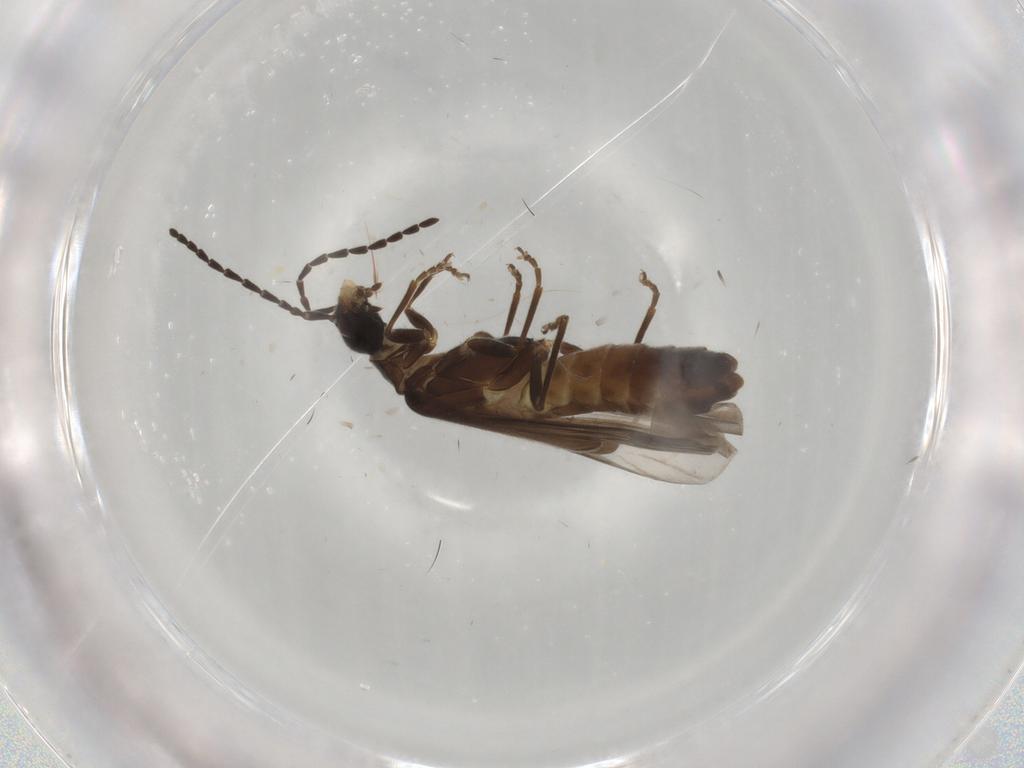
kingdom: Animalia
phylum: Arthropoda
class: Insecta
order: Coleoptera
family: Cantharidae
